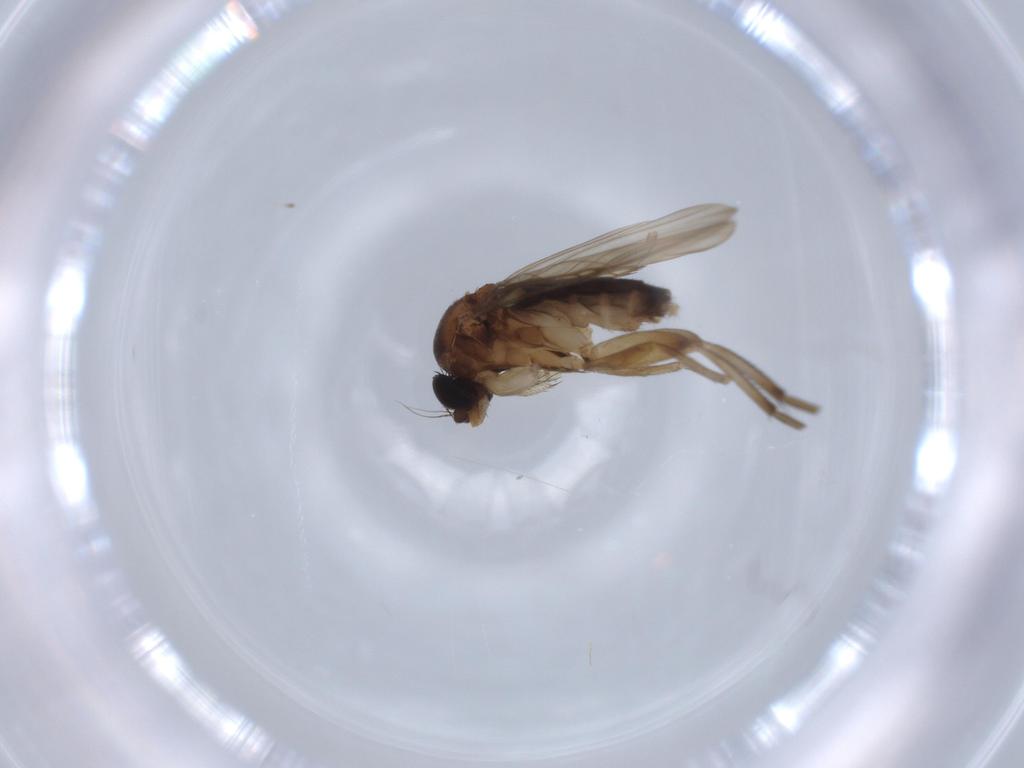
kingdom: Animalia
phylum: Arthropoda
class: Insecta
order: Diptera
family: Phoridae
